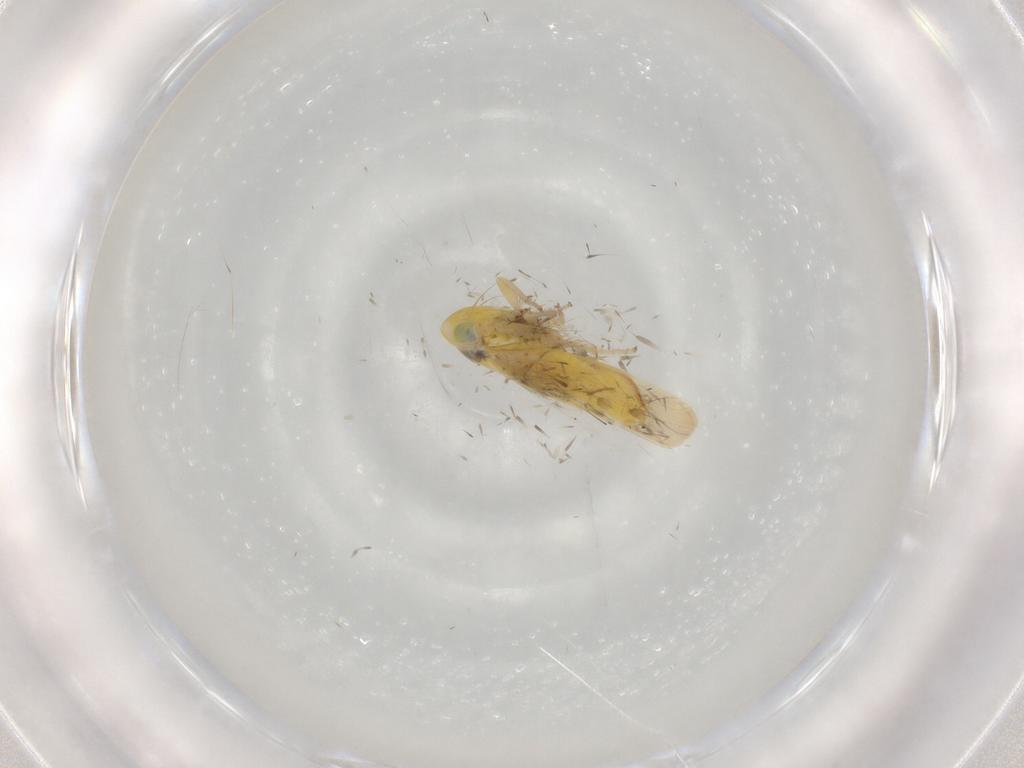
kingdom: Animalia
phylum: Arthropoda
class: Insecta
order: Hemiptera
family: Cicadellidae
